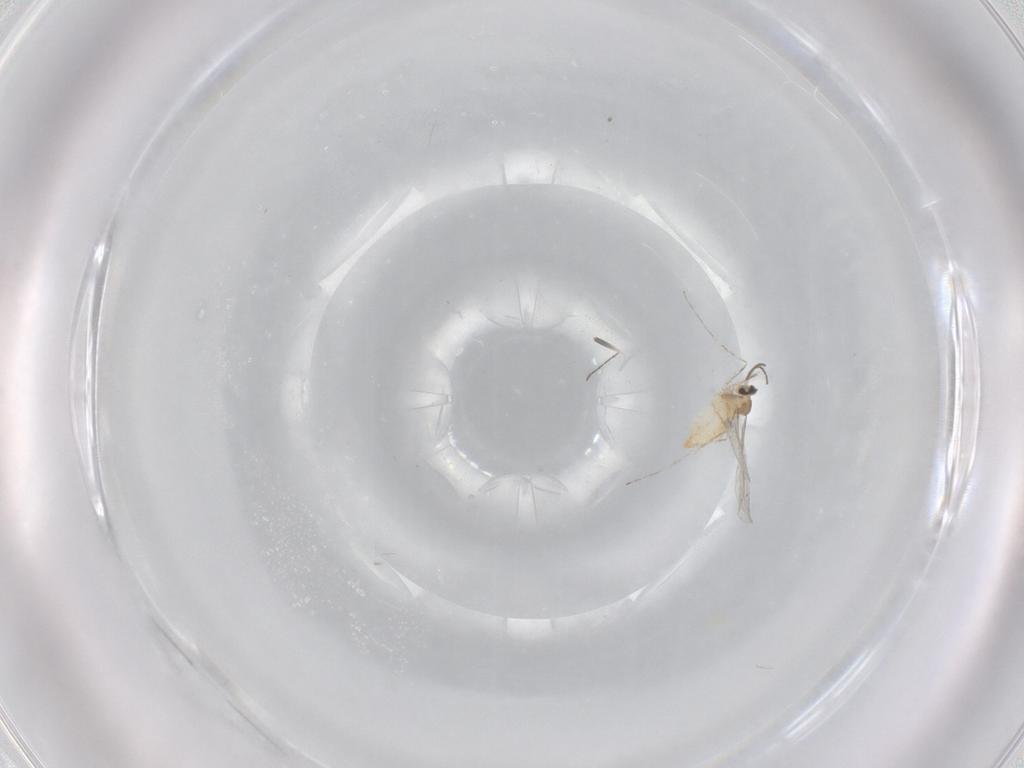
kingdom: Animalia
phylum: Arthropoda
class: Insecta
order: Diptera
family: Cecidomyiidae
